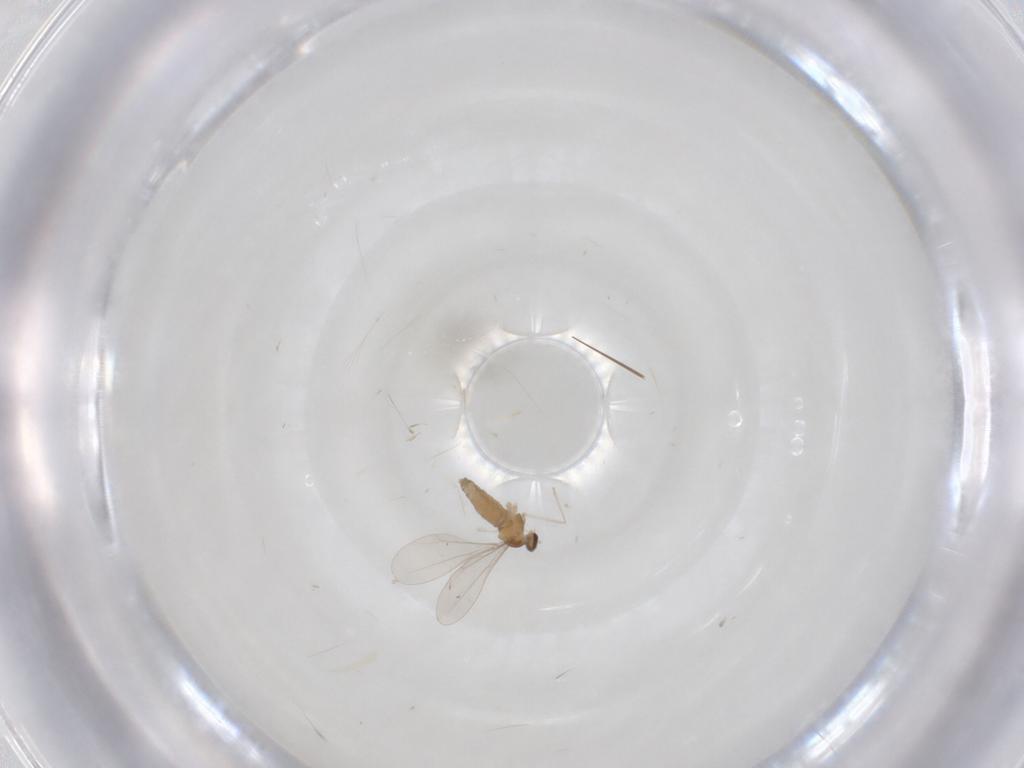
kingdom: Animalia
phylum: Arthropoda
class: Insecta
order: Diptera
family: Cecidomyiidae
